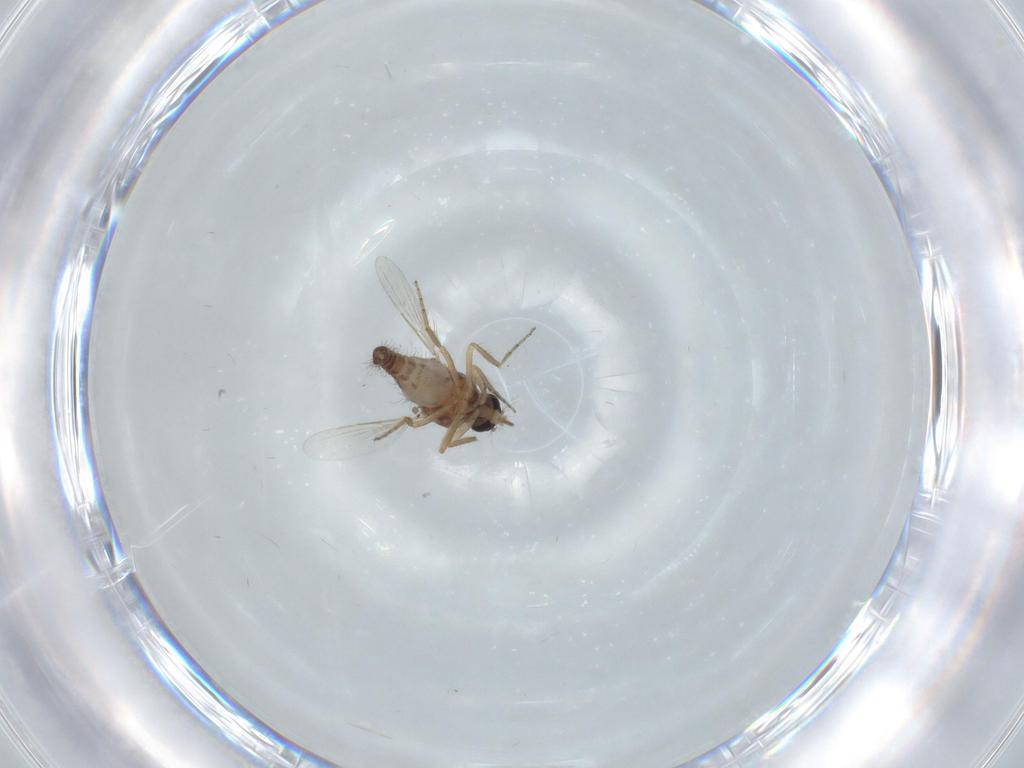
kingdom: Animalia
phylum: Arthropoda
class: Insecta
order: Diptera
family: Ceratopogonidae
